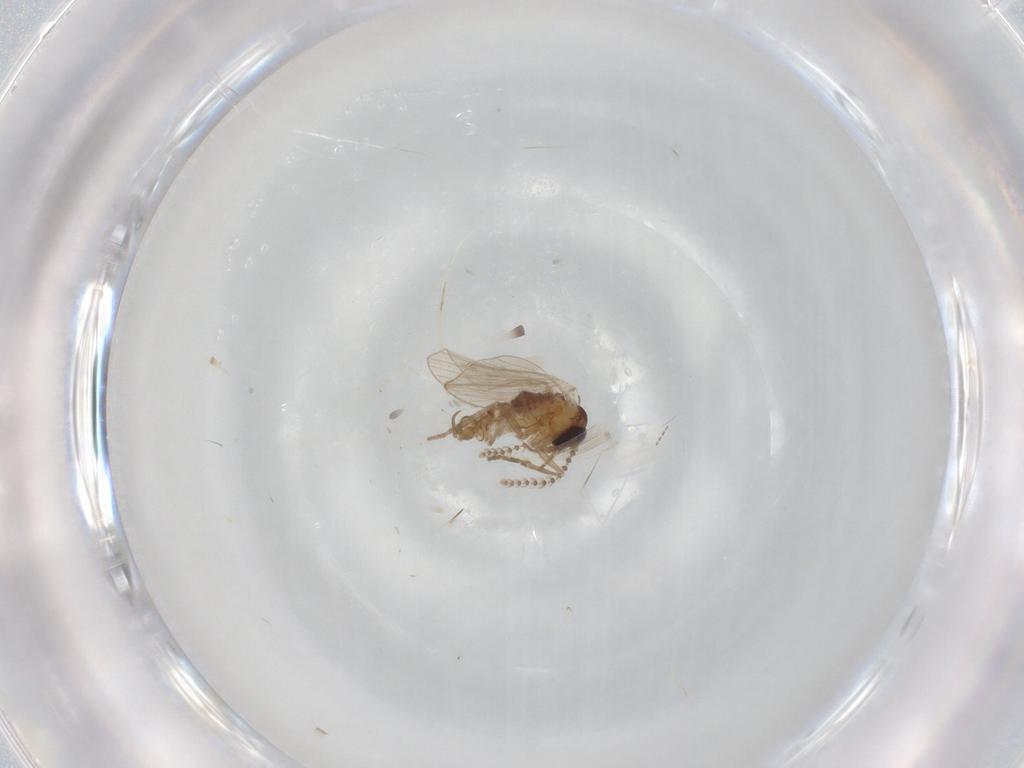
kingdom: Animalia
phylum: Arthropoda
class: Insecta
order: Diptera
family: Psychodidae
